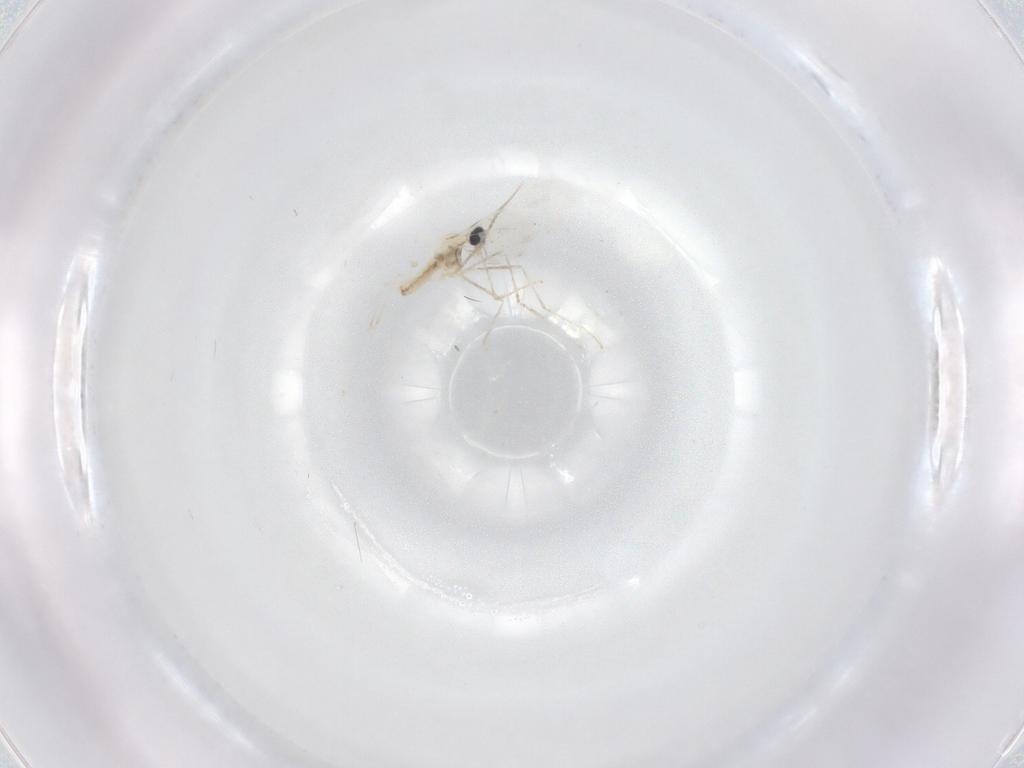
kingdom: Animalia
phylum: Arthropoda
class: Insecta
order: Diptera
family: Cecidomyiidae
